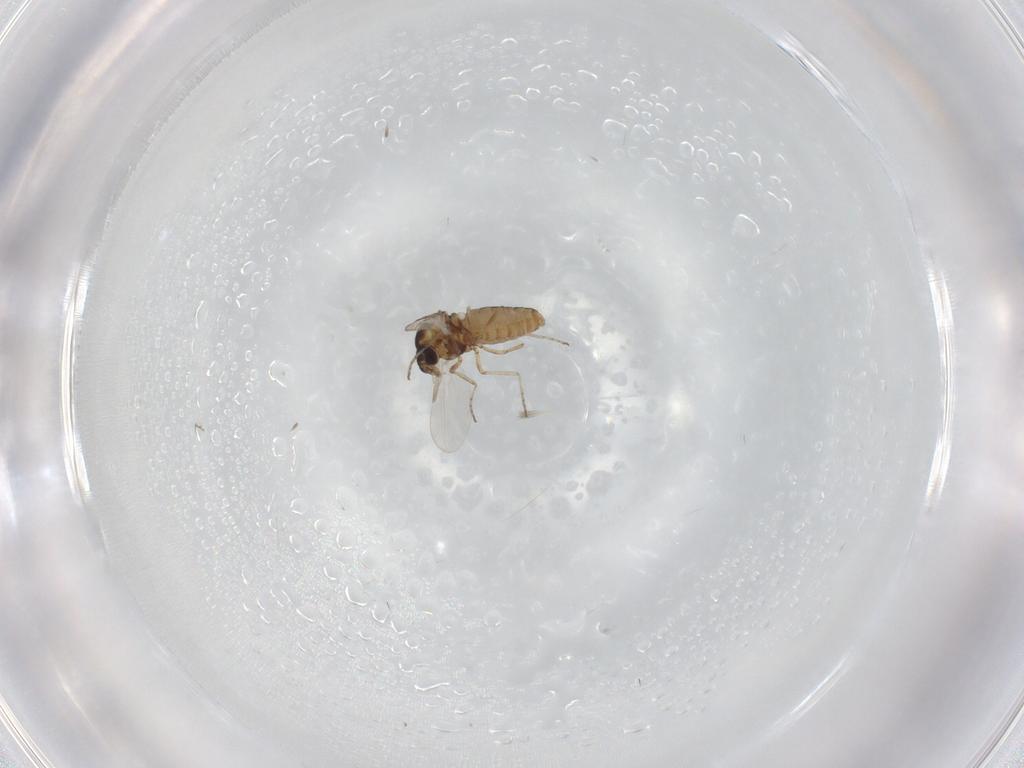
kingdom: Animalia
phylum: Arthropoda
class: Insecta
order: Diptera
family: Ceratopogonidae
